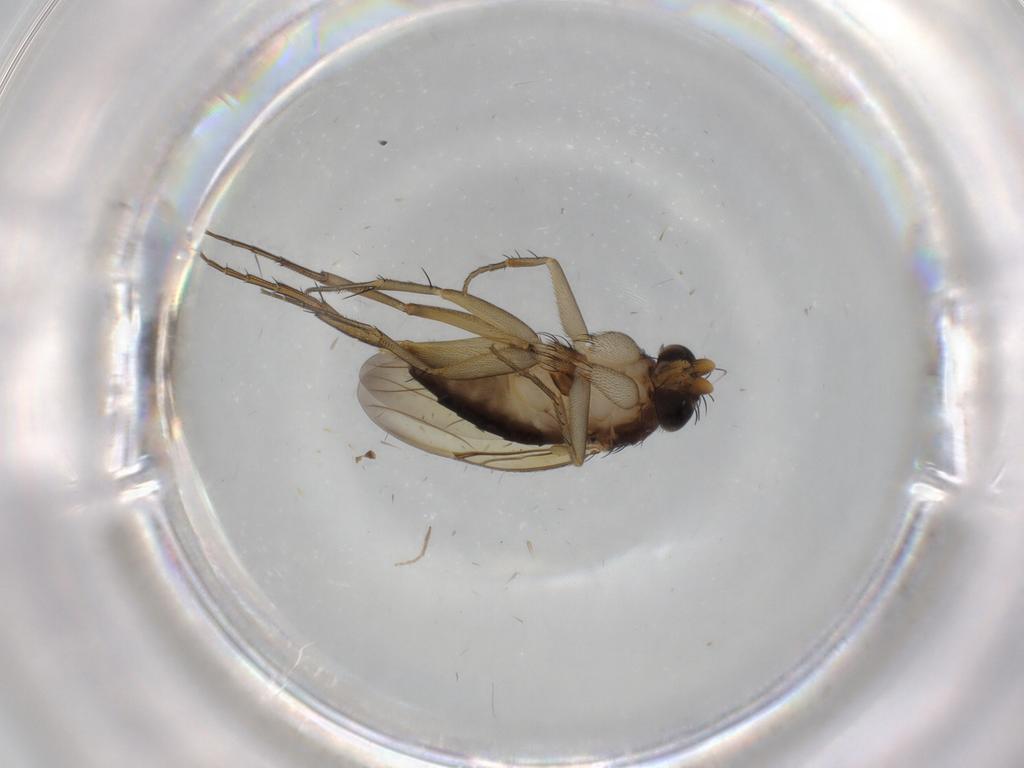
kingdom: Animalia
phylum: Arthropoda
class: Insecta
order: Diptera
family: Phoridae
